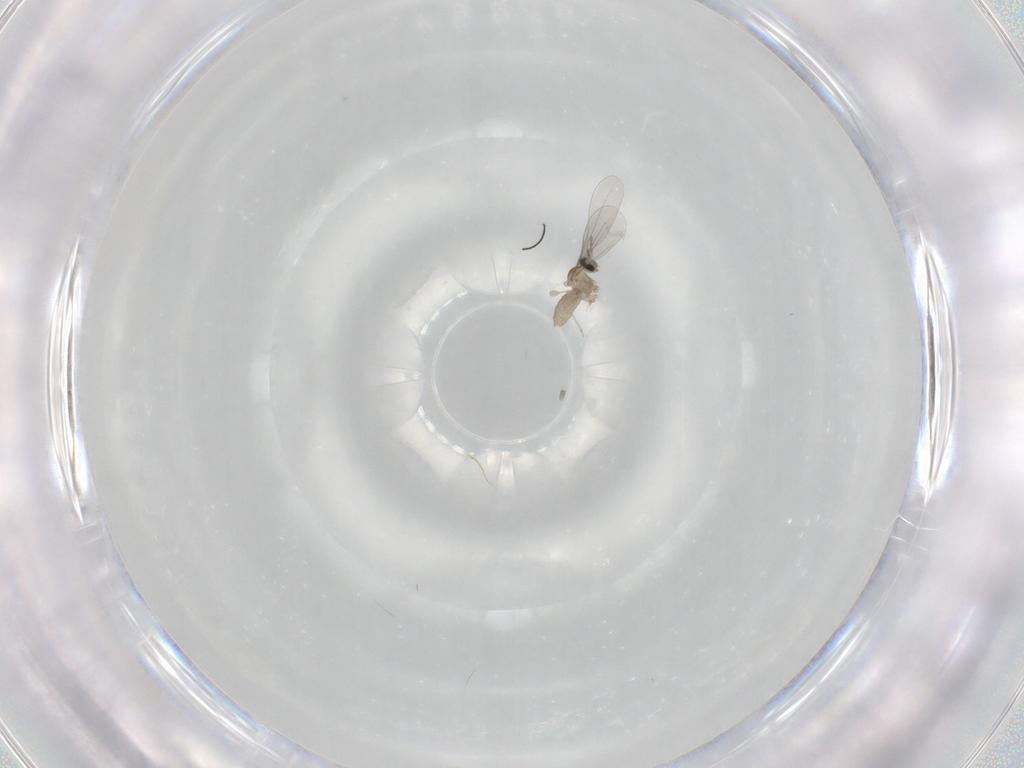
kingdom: Animalia
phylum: Arthropoda
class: Insecta
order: Diptera
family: Cecidomyiidae
